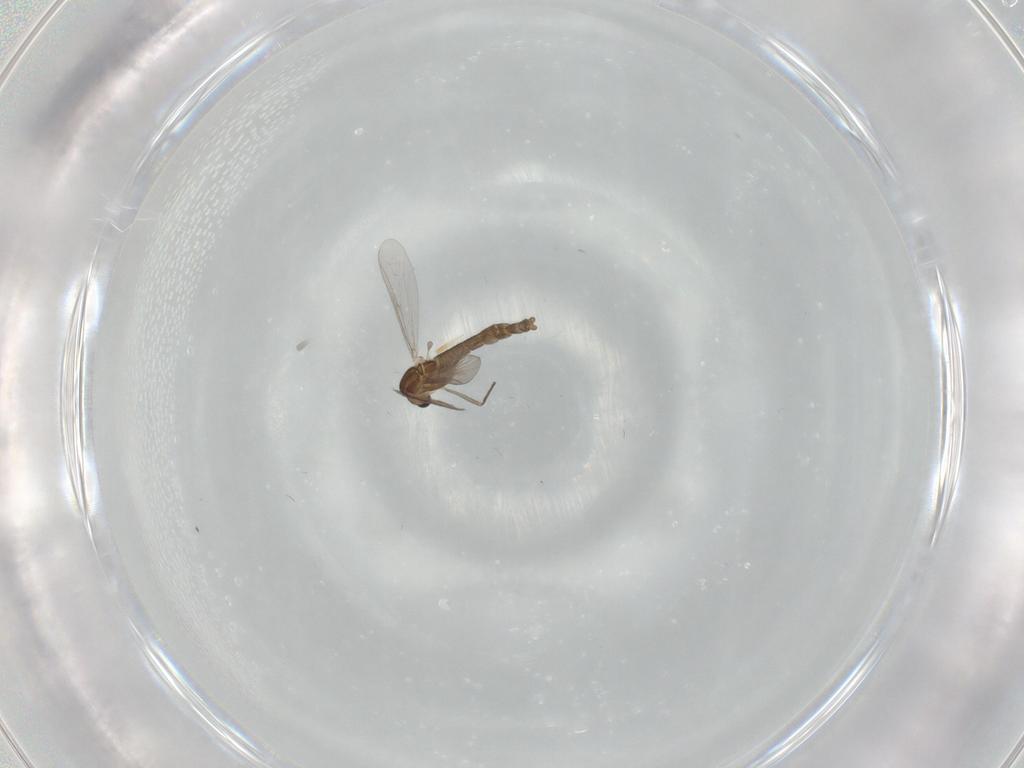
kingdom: Animalia
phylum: Arthropoda
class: Insecta
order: Diptera
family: Chironomidae
